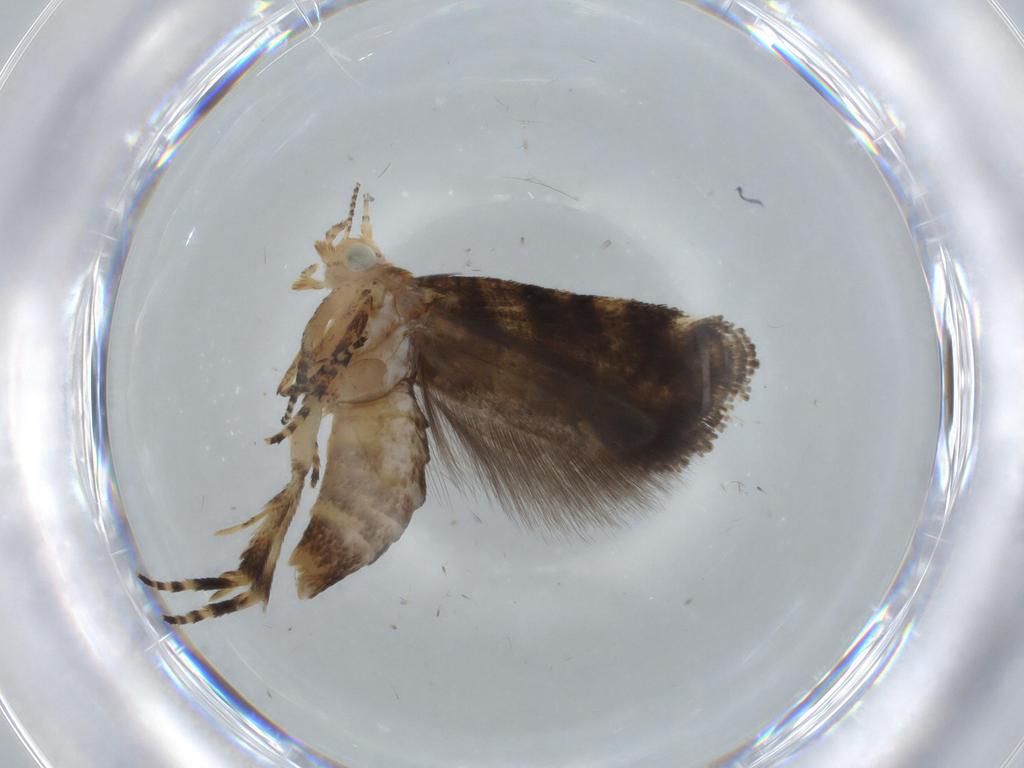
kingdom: Animalia
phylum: Arthropoda
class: Insecta
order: Lepidoptera
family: Glyphipterigidae
